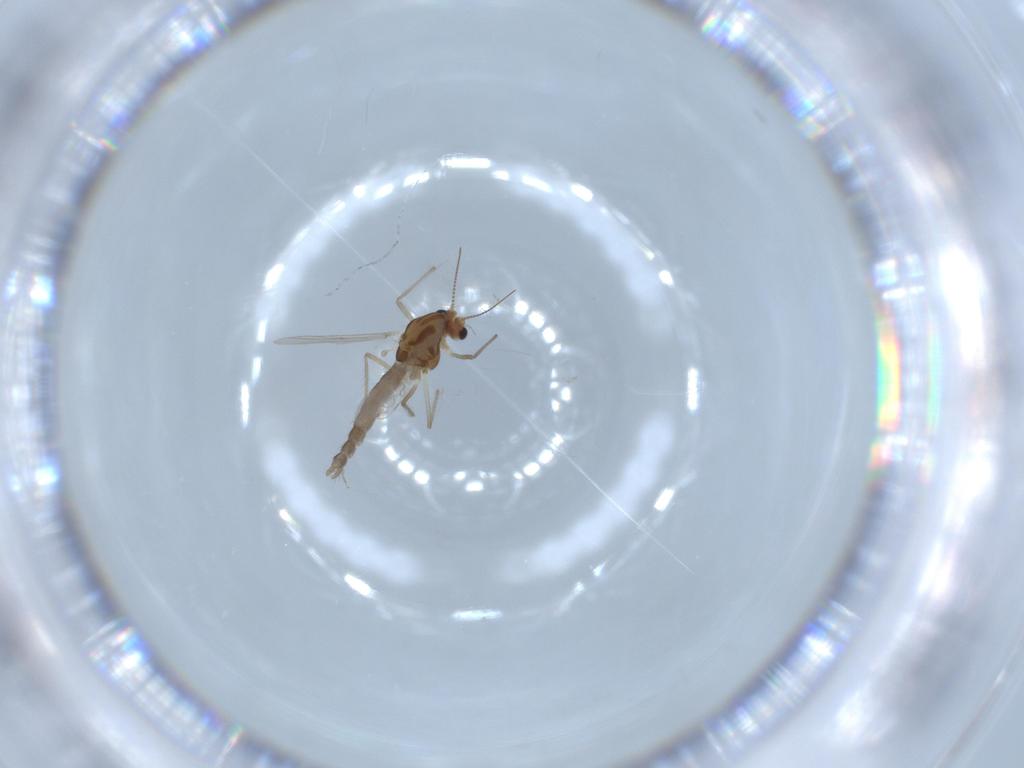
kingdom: Animalia
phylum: Arthropoda
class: Insecta
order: Diptera
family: Chironomidae
